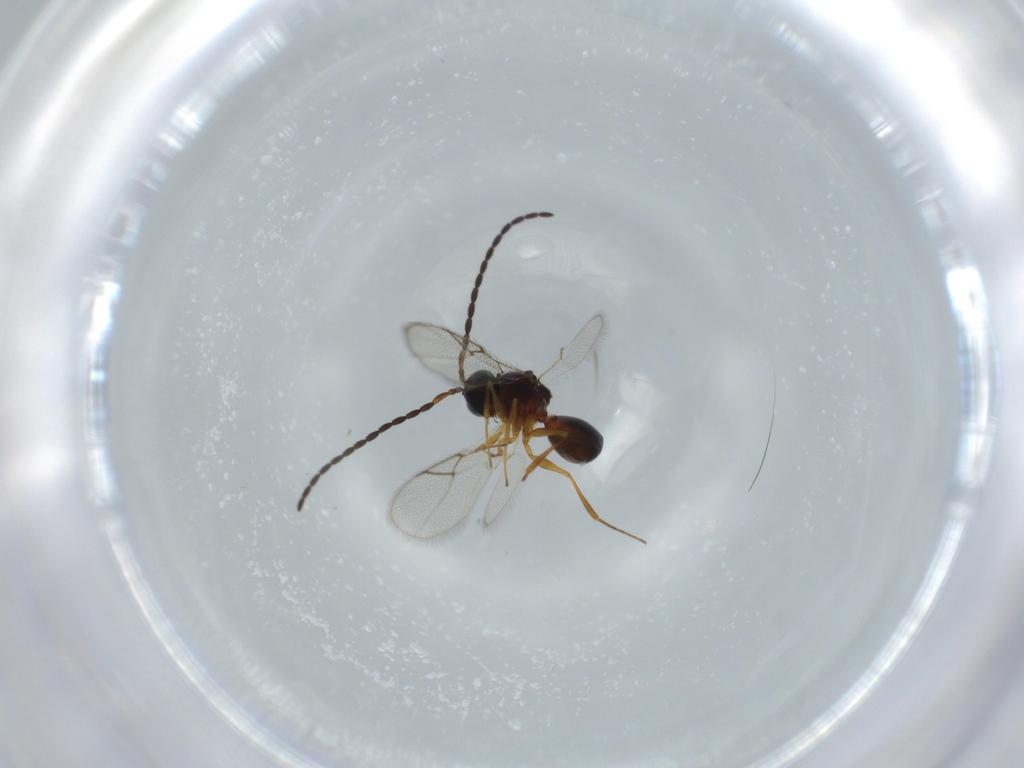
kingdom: Animalia
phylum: Arthropoda
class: Insecta
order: Hymenoptera
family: Figitidae
